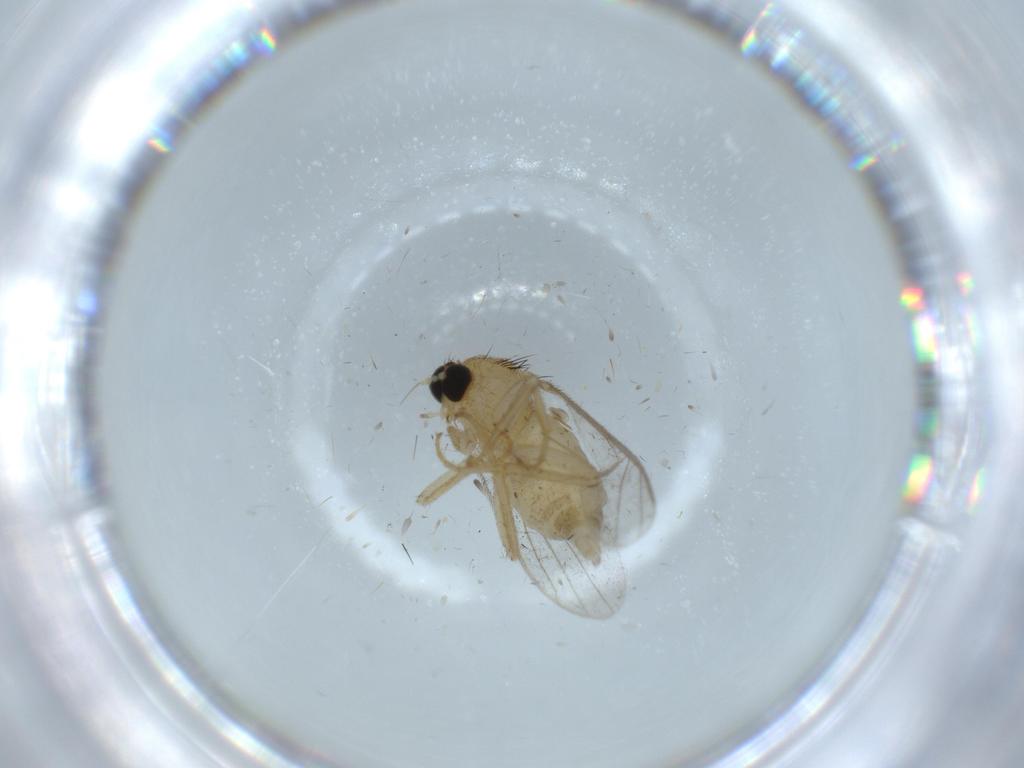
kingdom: Animalia
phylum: Arthropoda
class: Insecta
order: Diptera
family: Hybotidae
